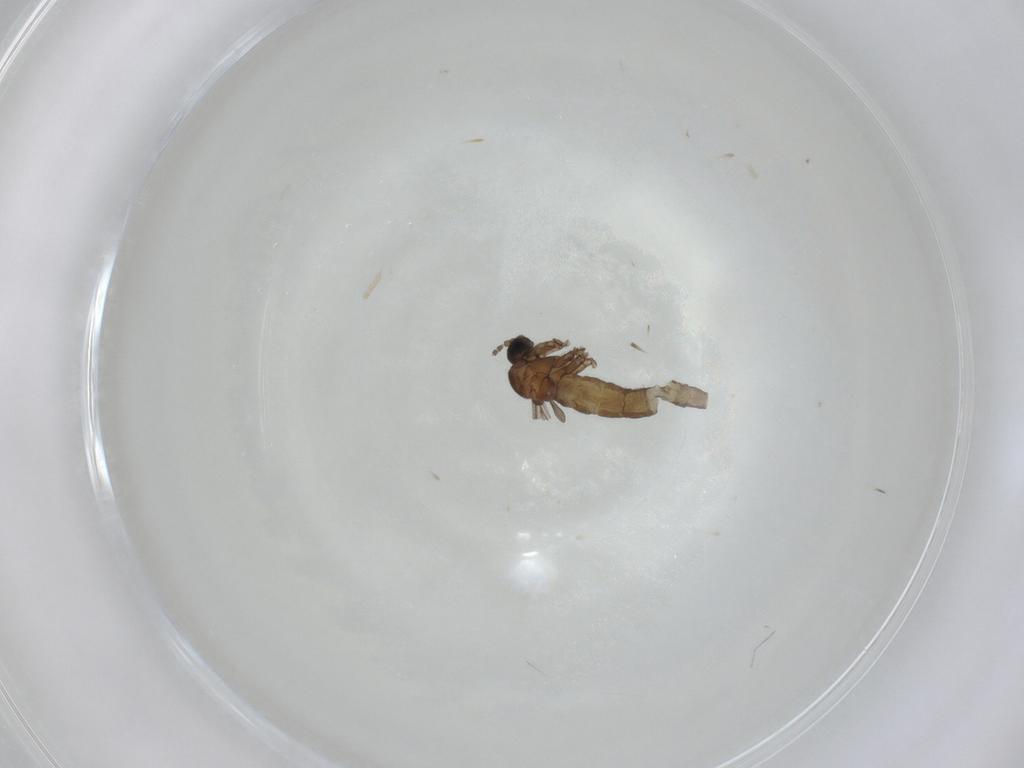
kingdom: Animalia
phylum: Arthropoda
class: Insecta
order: Diptera
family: Sciaridae
